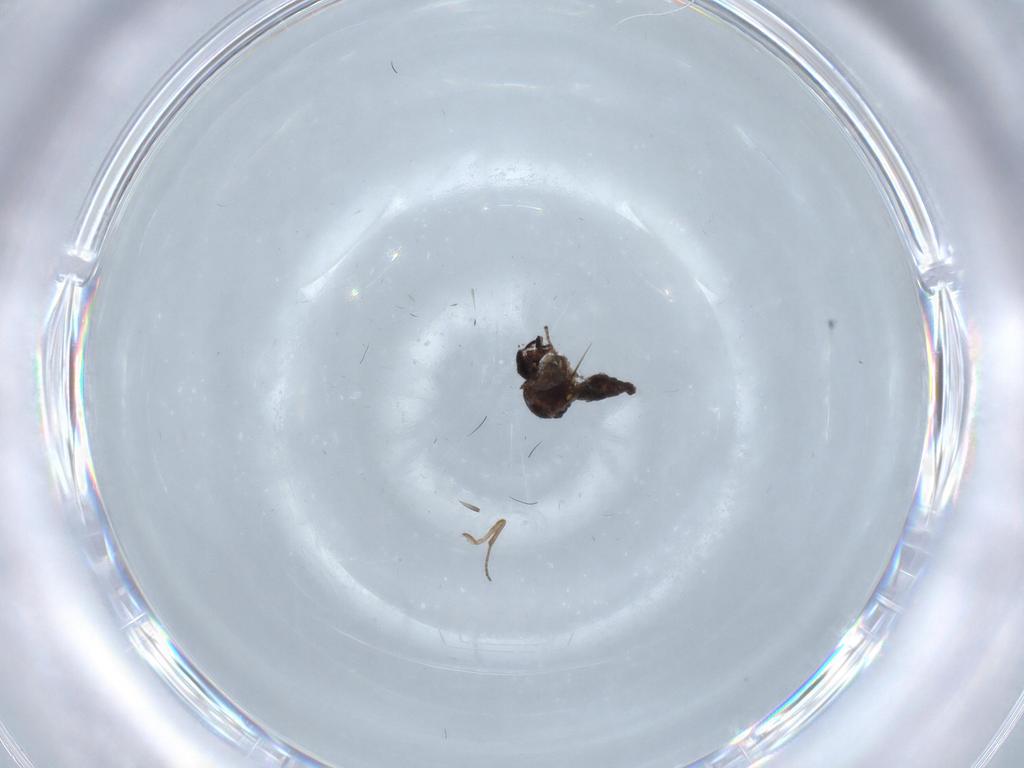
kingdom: Animalia
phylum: Arthropoda
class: Insecta
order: Diptera
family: Ceratopogonidae
